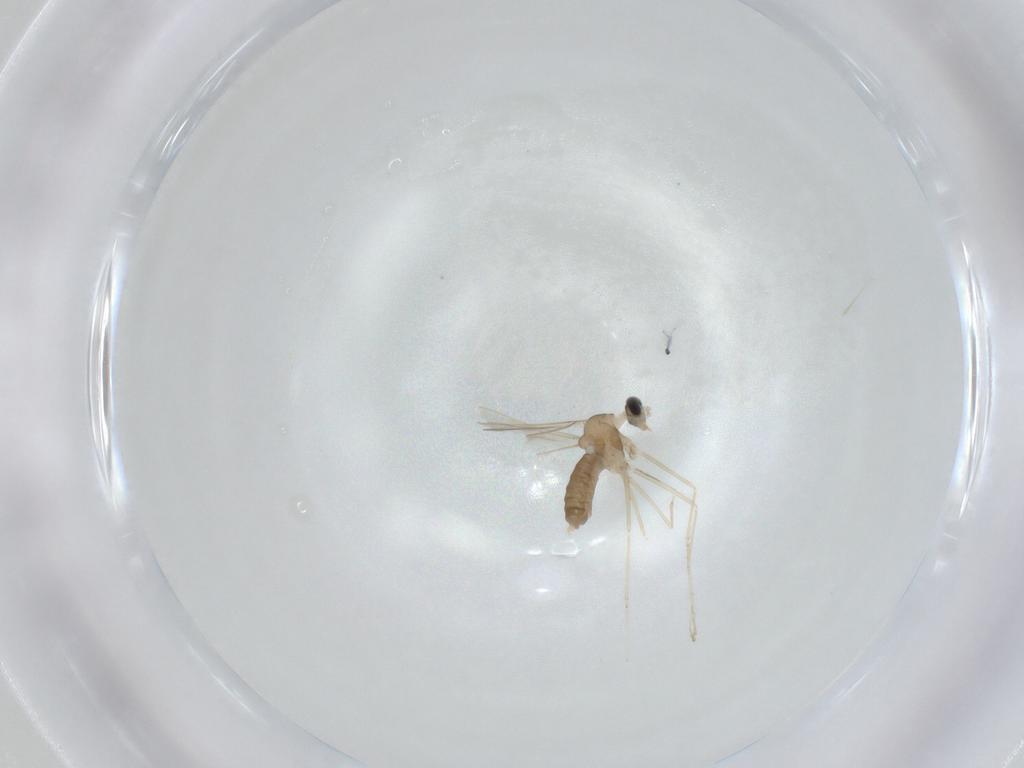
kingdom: Animalia
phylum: Arthropoda
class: Insecta
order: Diptera
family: Cecidomyiidae
